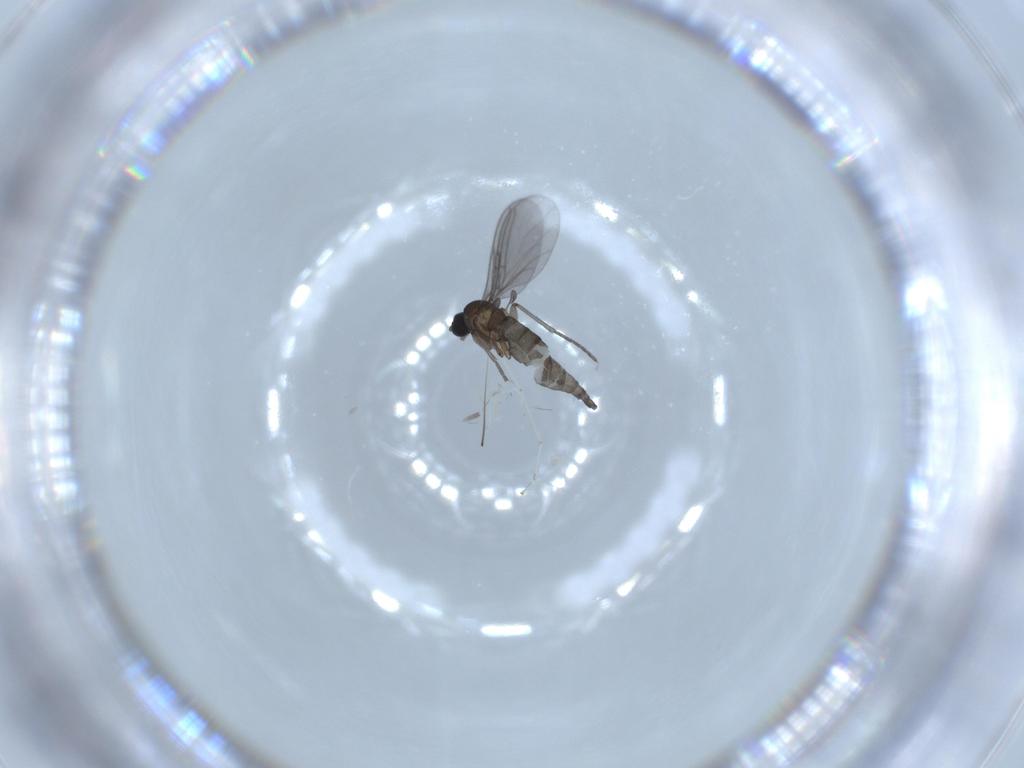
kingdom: Animalia
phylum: Arthropoda
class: Insecta
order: Diptera
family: Cecidomyiidae
